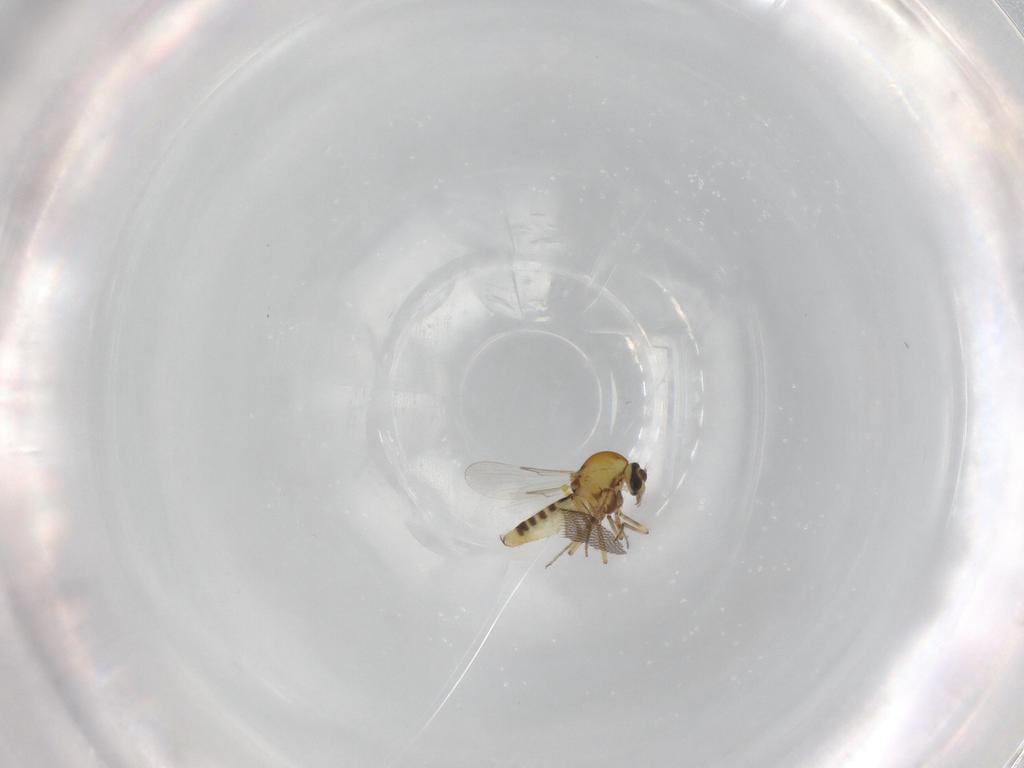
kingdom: Animalia
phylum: Arthropoda
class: Insecta
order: Diptera
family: Ceratopogonidae
